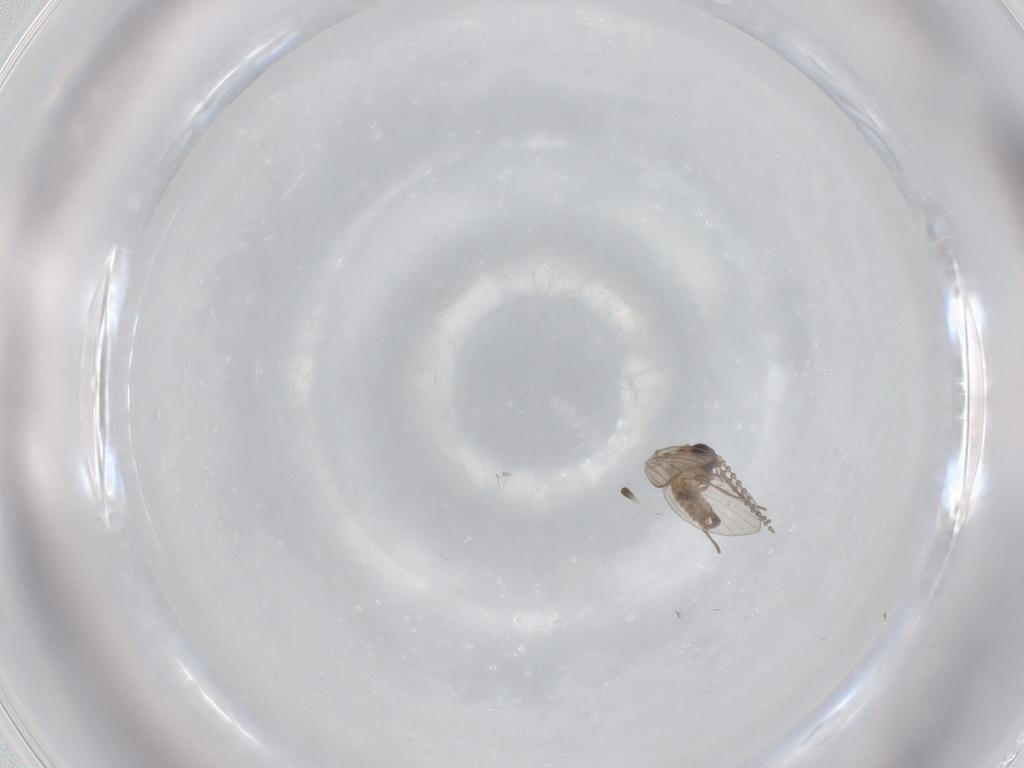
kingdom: Animalia
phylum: Arthropoda
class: Insecta
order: Diptera
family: Psychodidae
